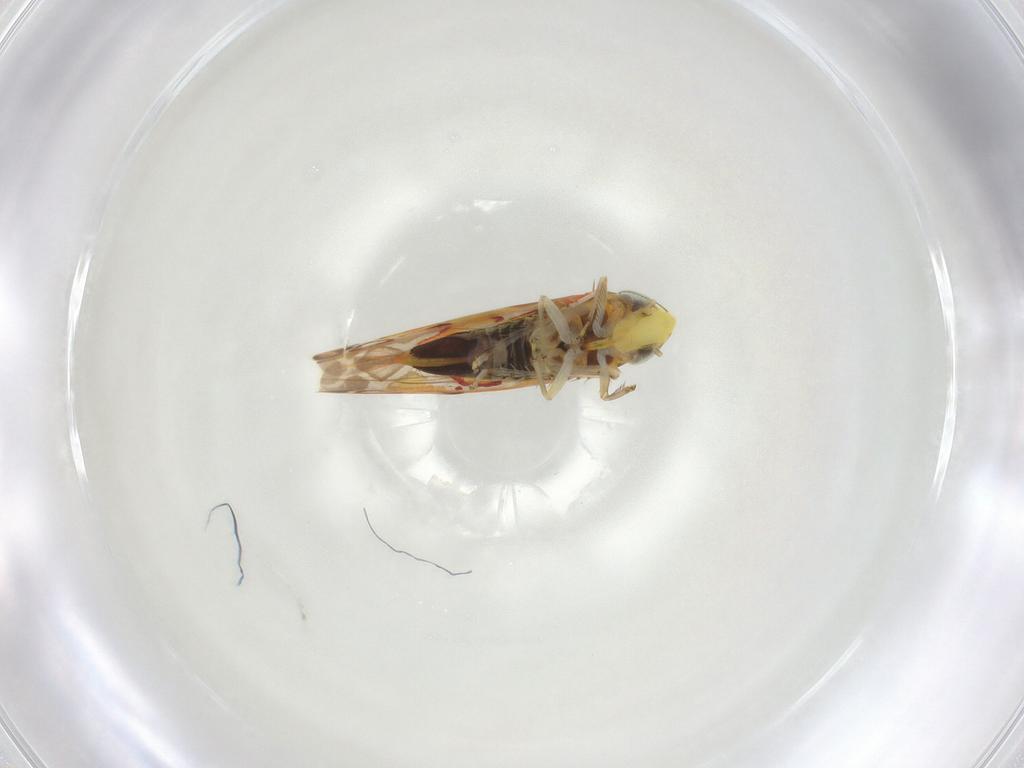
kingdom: Animalia
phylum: Arthropoda
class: Insecta
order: Hemiptera
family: Cicadellidae
